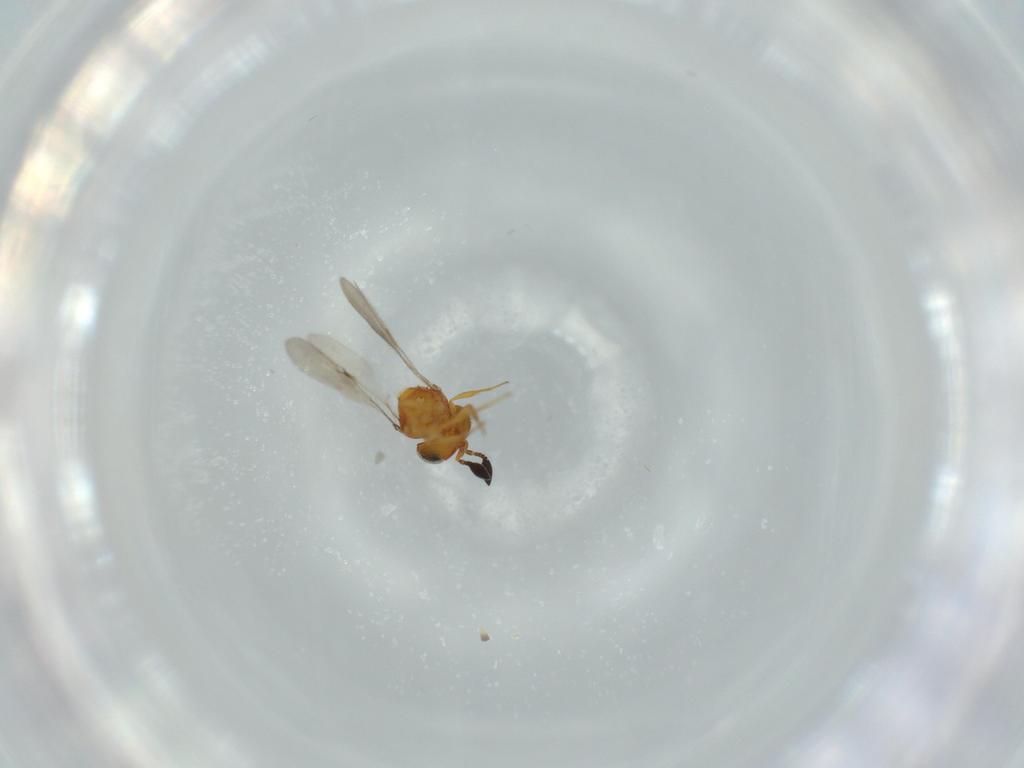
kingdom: Animalia
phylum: Arthropoda
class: Insecta
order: Hymenoptera
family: Scelionidae
